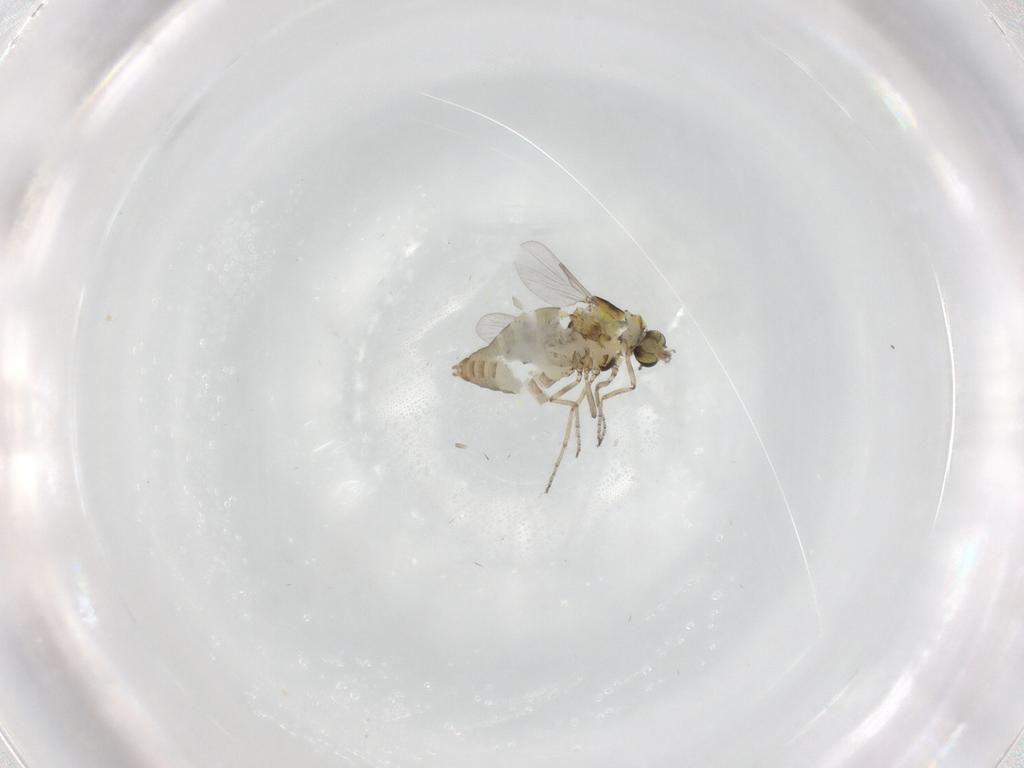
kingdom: Animalia
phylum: Arthropoda
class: Insecta
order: Diptera
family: Ceratopogonidae
